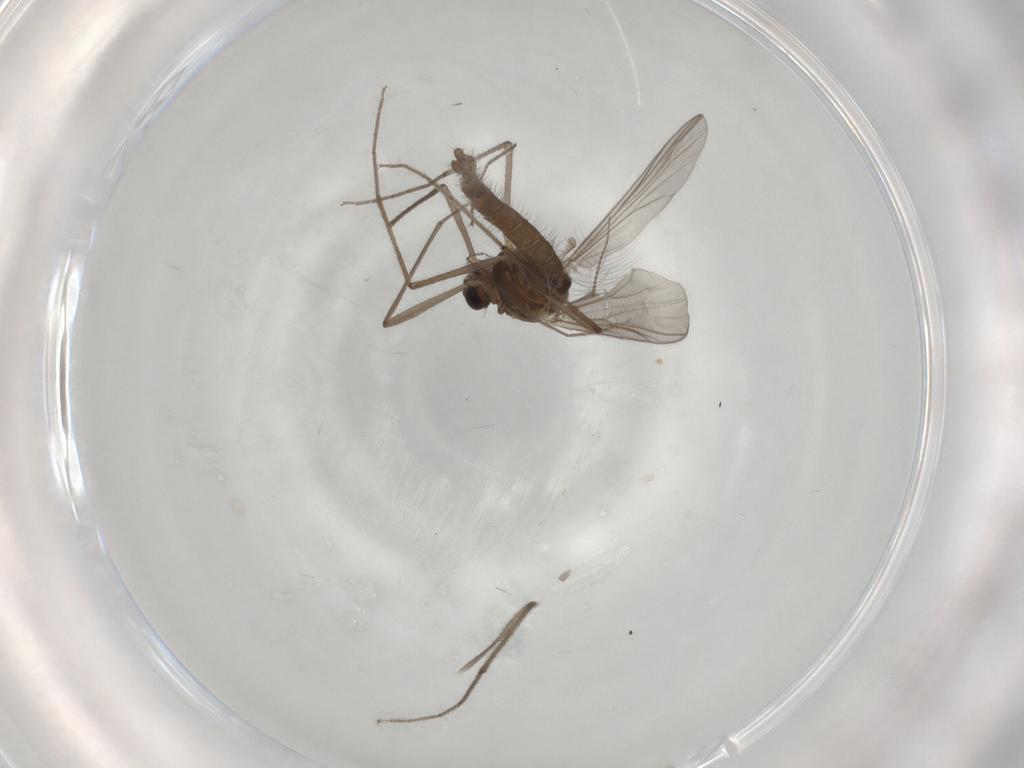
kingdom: Animalia
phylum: Arthropoda
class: Insecta
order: Diptera
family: Chironomidae
